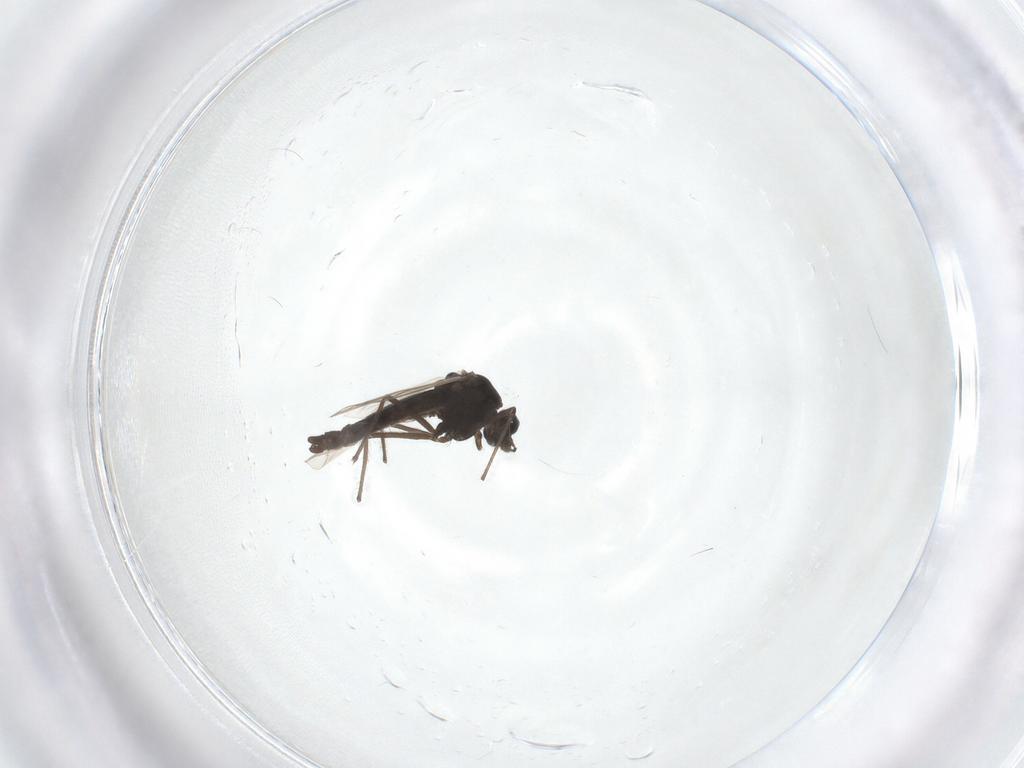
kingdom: Animalia
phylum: Arthropoda
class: Insecta
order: Diptera
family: Chironomidae
